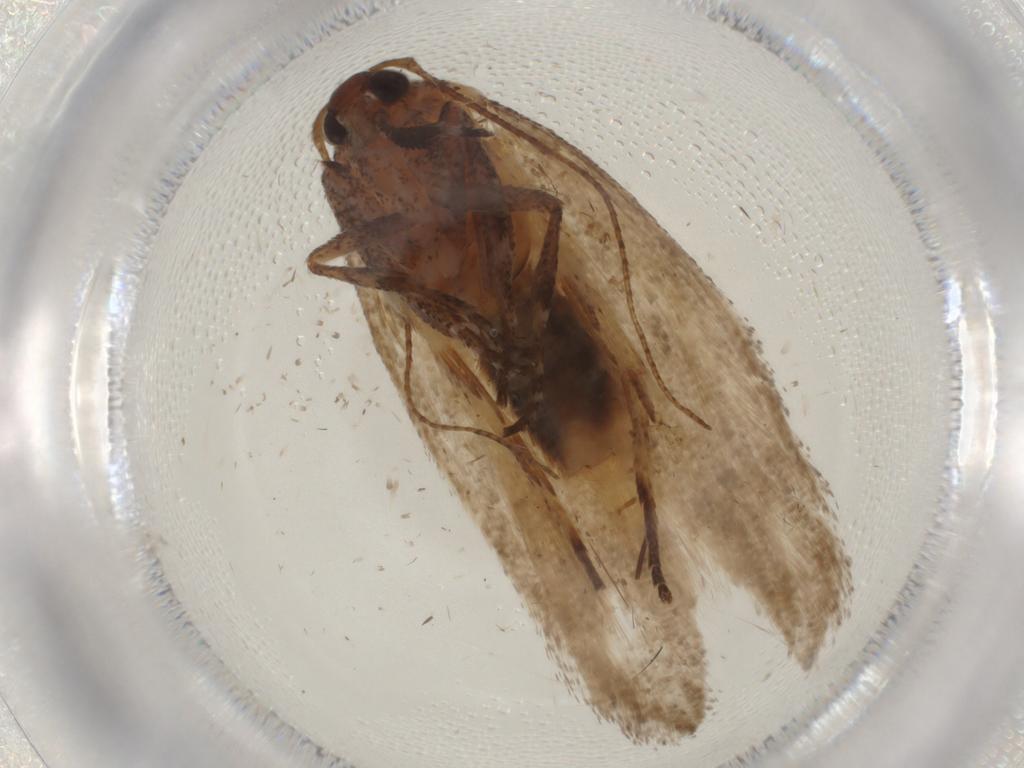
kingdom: Animalia
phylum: Arthropoda
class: Insecta
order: Lepidoptera
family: Cosmopterigidae
